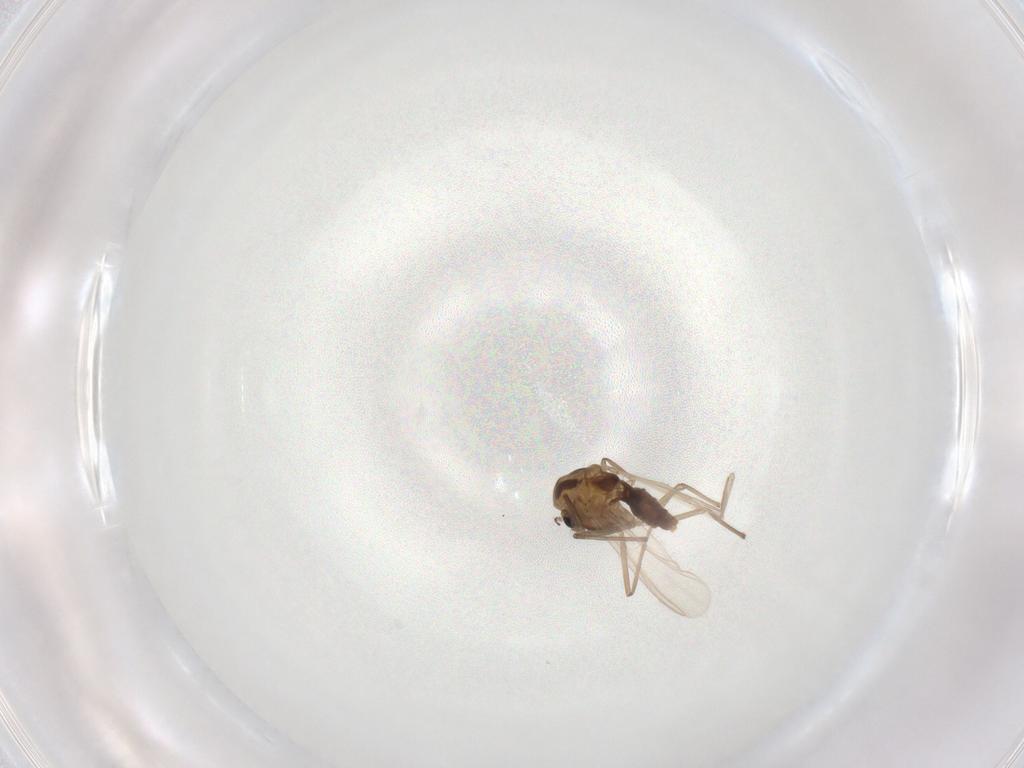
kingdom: Animalia
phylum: Arthropoda
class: Insecta
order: Diptera
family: Chironomidae
